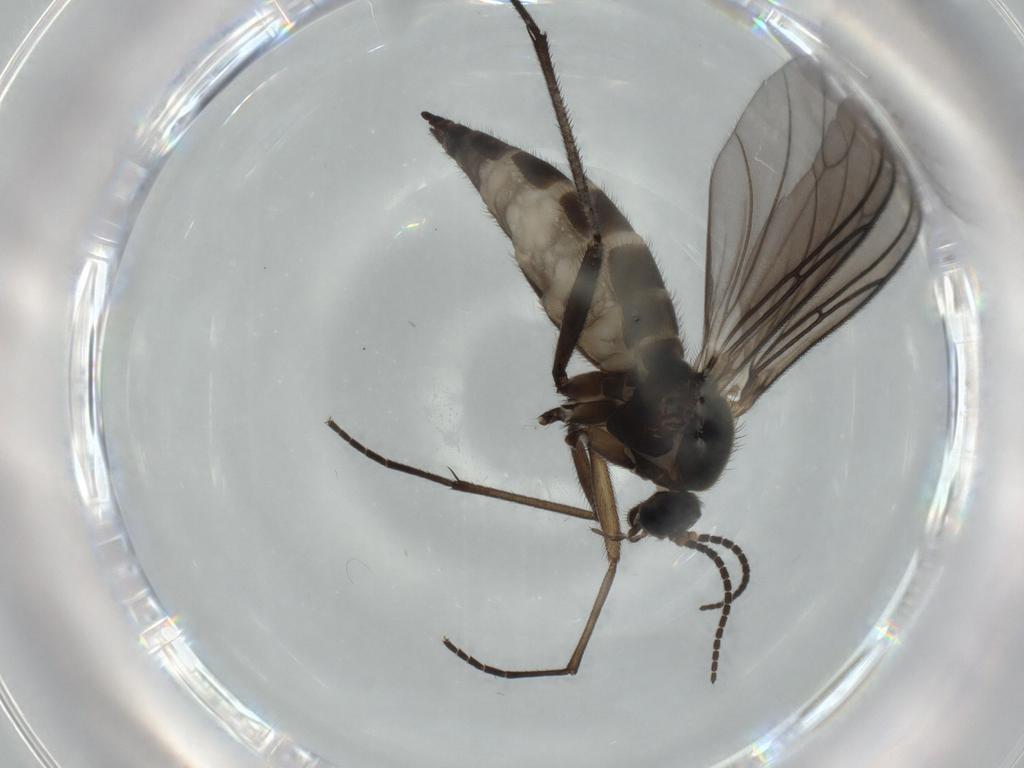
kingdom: Animalia
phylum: Arthropoda
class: Insecta
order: Diptera
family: Sciaridae
